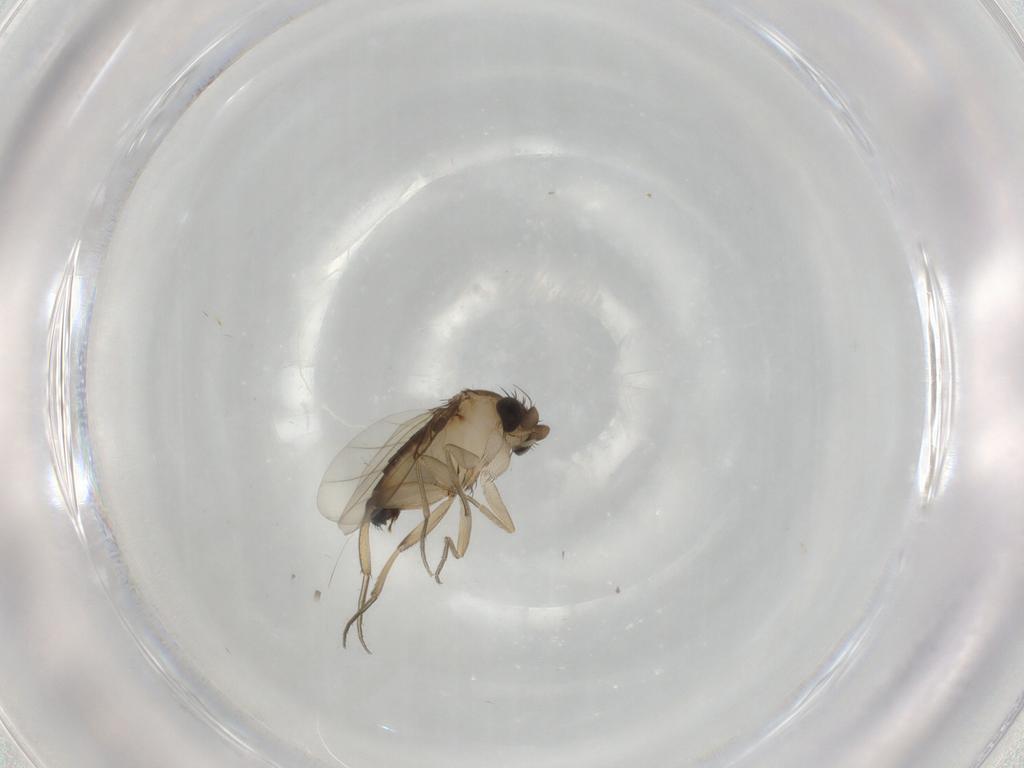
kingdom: Animalia
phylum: Arthropoda
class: Insecta
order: Diptera
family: Phoridae
